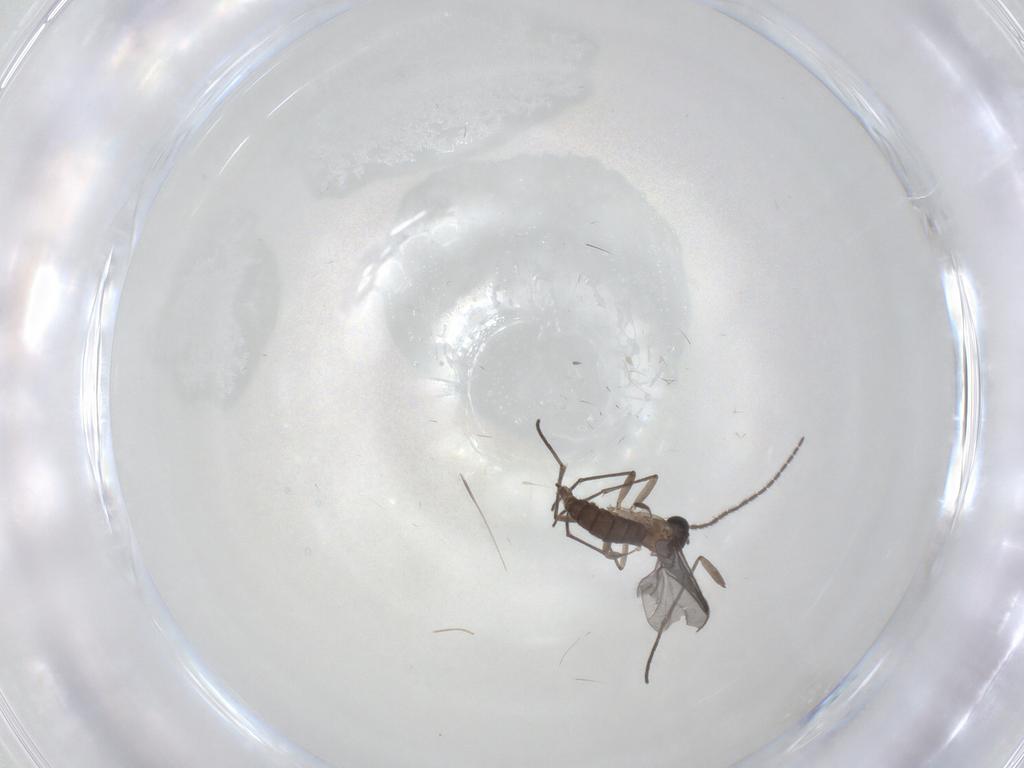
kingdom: Animalia
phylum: Arthropoda
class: Insecta
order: Diptera
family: Sciaridae
